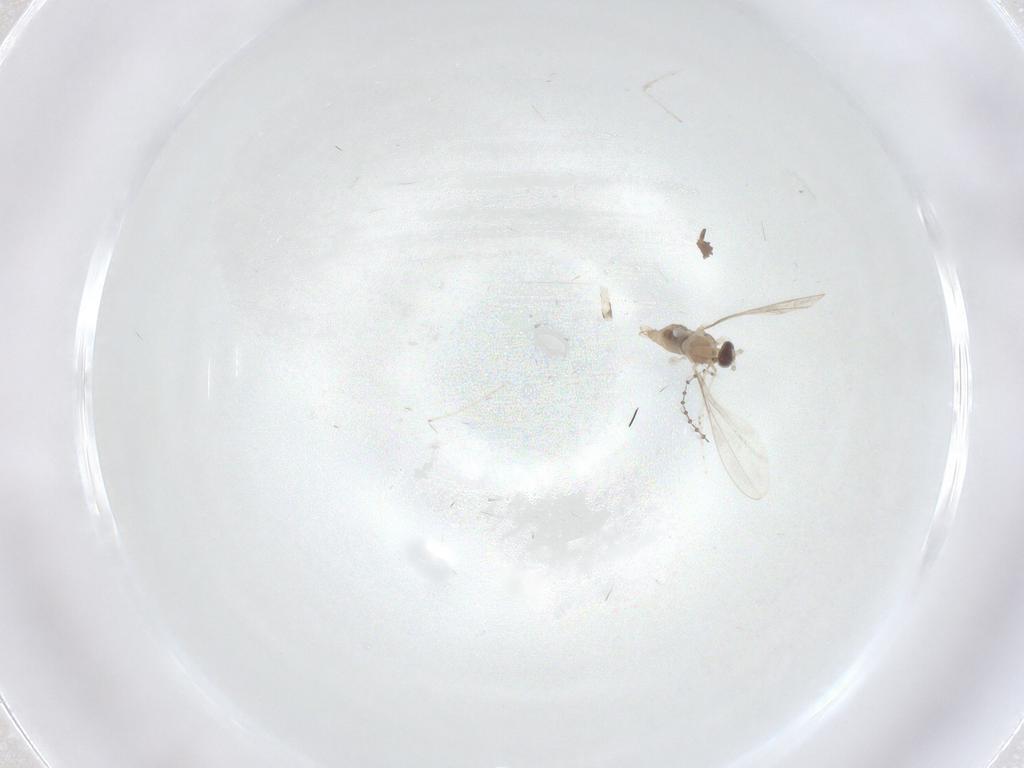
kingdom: Animalia
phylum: Arthropoda
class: Insecta
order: Diptera
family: Cecidomyiidae
